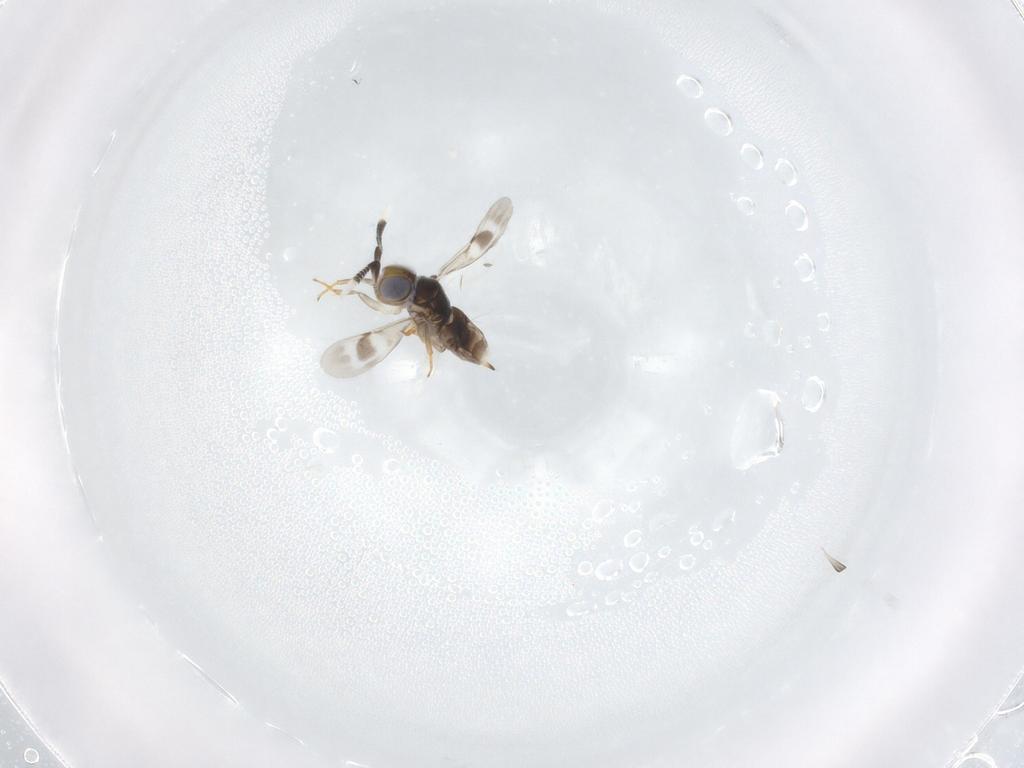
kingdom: Animalia
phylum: Arthropoda
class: Insecta
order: Hymenoptera
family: Encyrtidae
